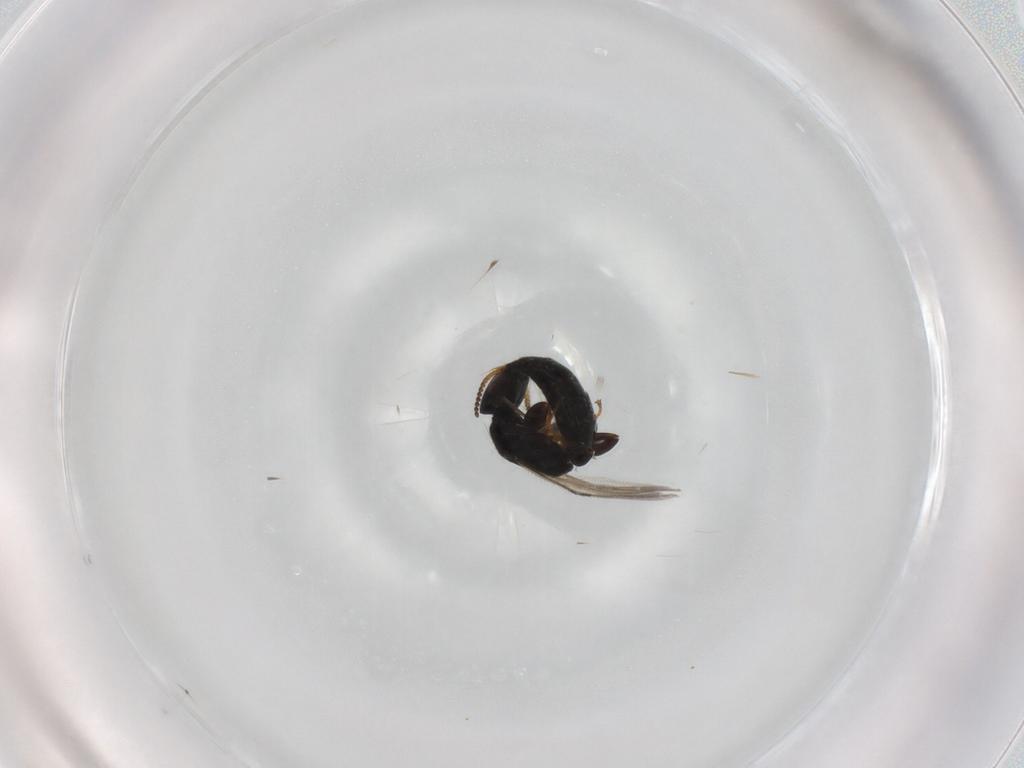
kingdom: Animalia
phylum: Arthropoda
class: Insecta
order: Hymenoptera
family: Bethylidae
